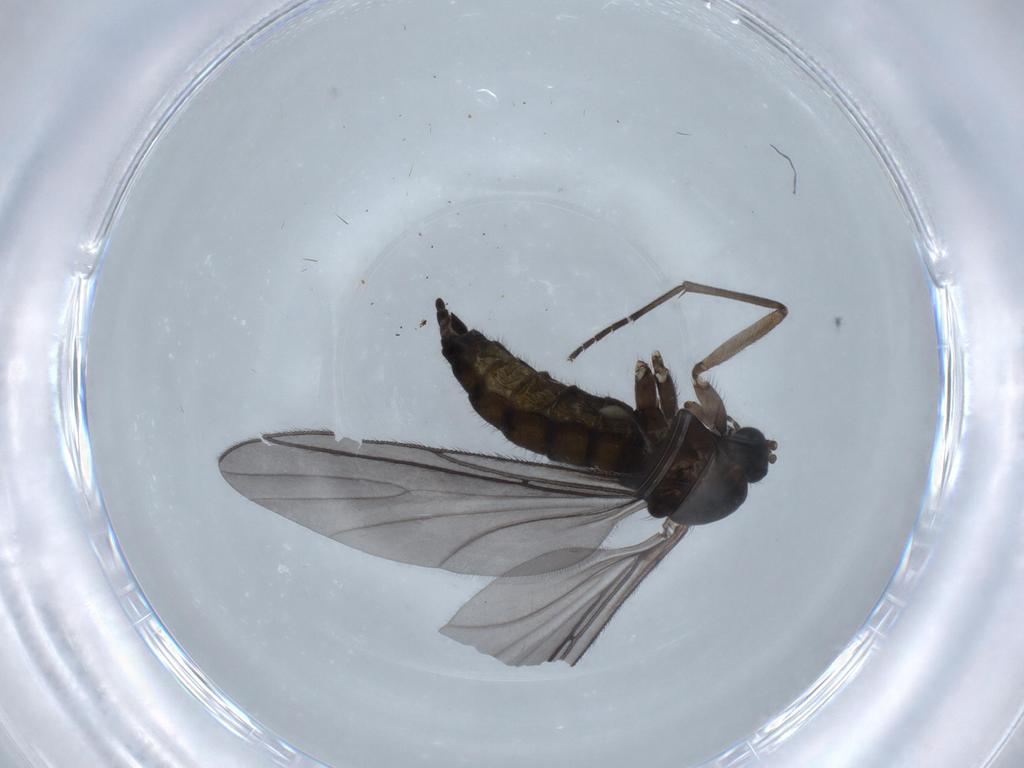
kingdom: Animalia
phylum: Arthropoda
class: Insecta
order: Diptera
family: Sciaridae
